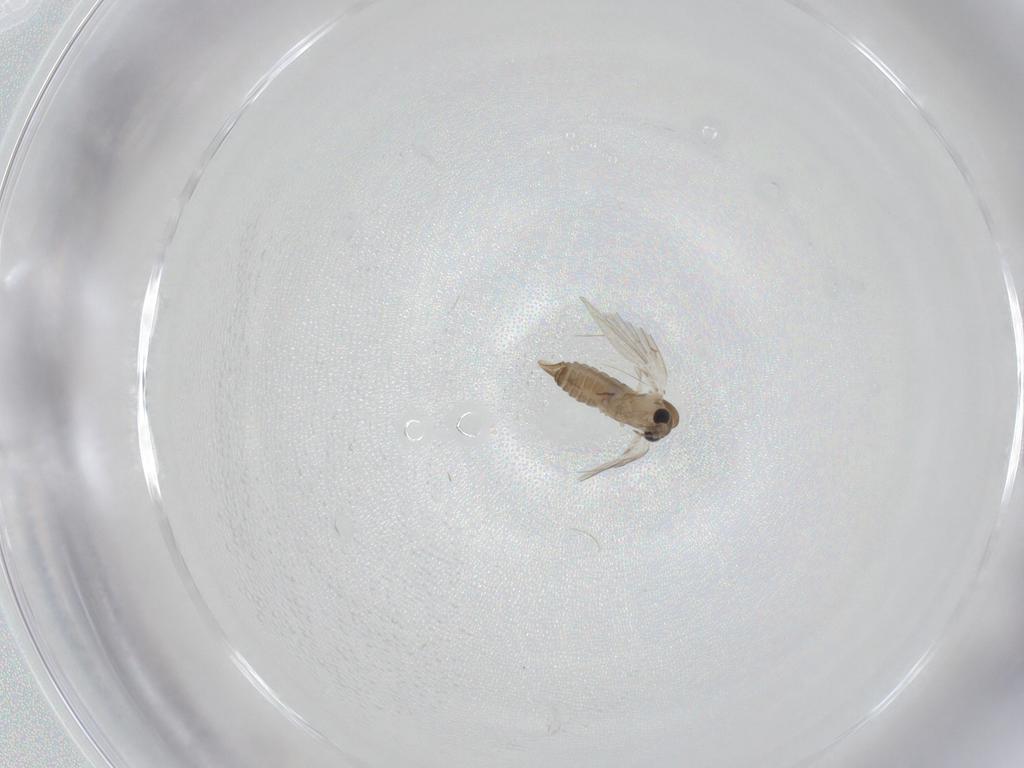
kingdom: Animalia
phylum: Arthropoda
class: Insecta
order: Diptera
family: Psychodidae
